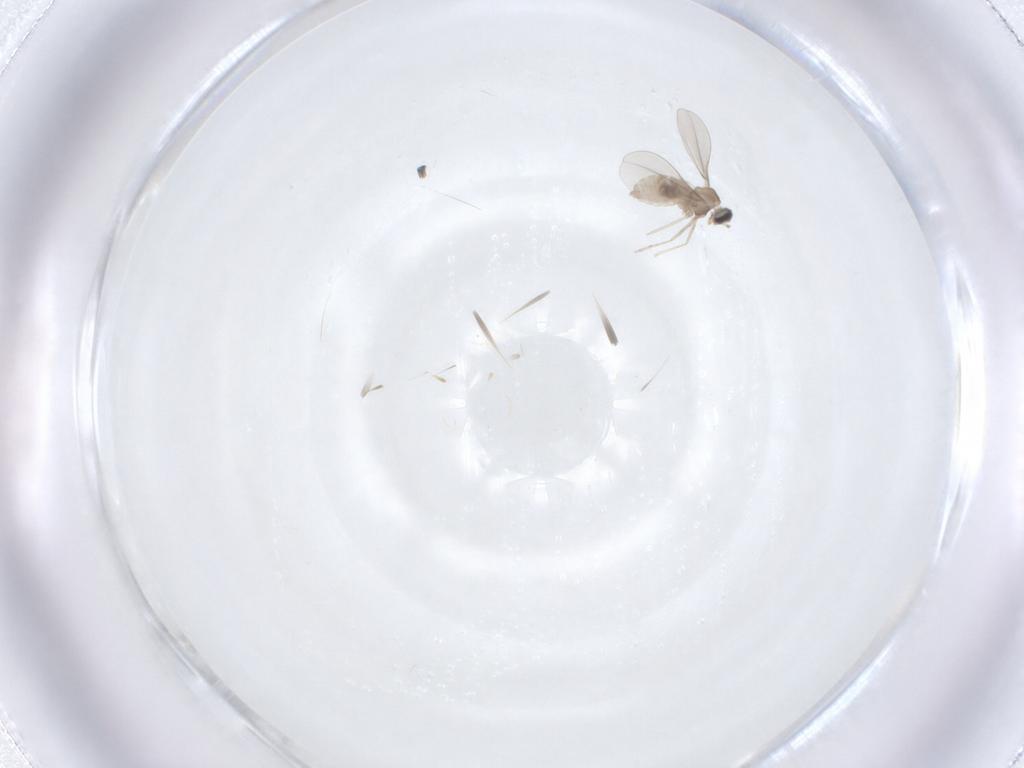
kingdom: Animalia
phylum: Arthropoda
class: Insecta
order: Diptera
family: Cecidomyiidae
